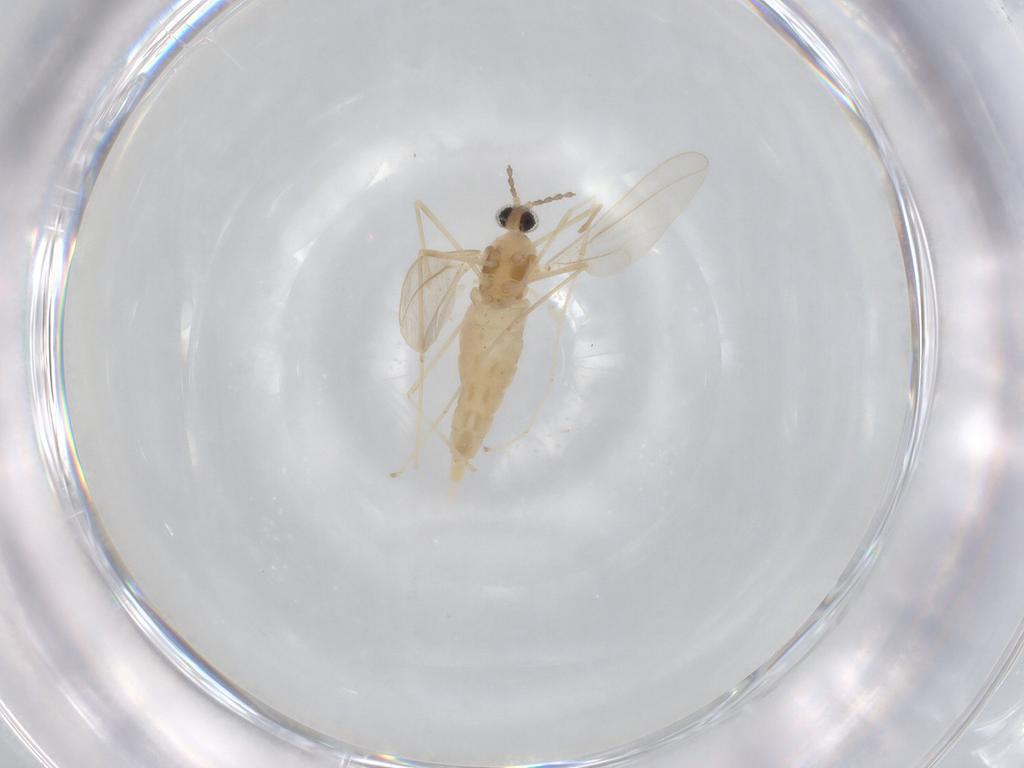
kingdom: Animalia
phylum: Arthropoda
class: Insecta
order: Diptera
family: Cecidomyiidae
